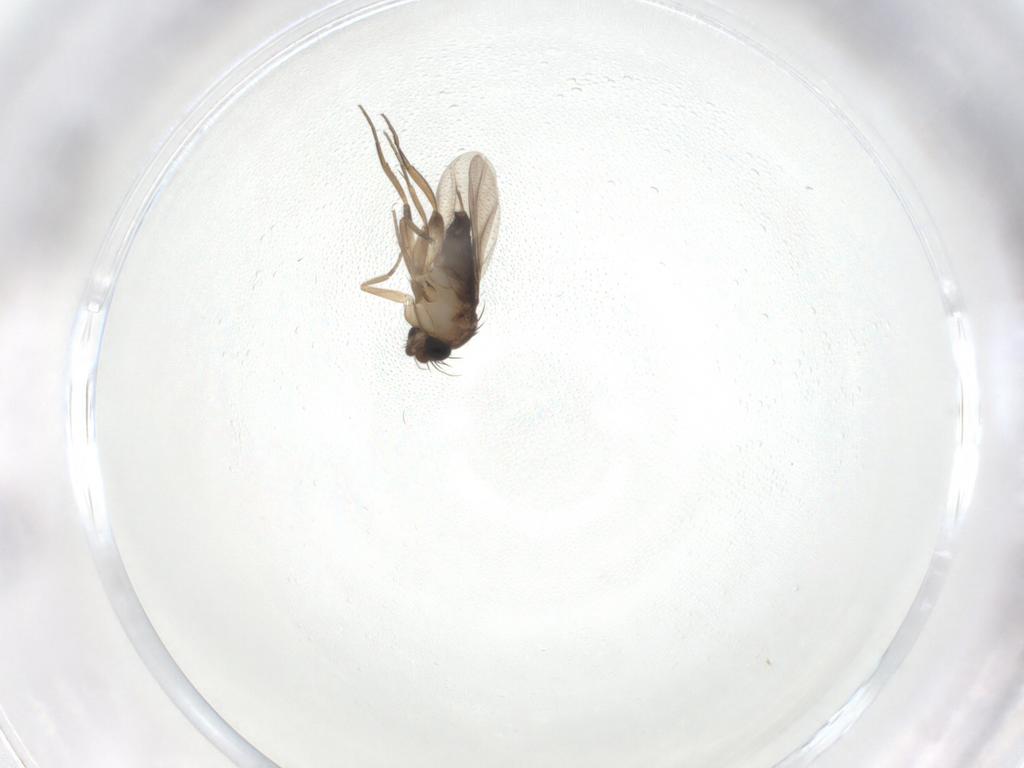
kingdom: Animalia
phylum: Arthropoda
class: Insecta
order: Diptera
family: Phoridae
